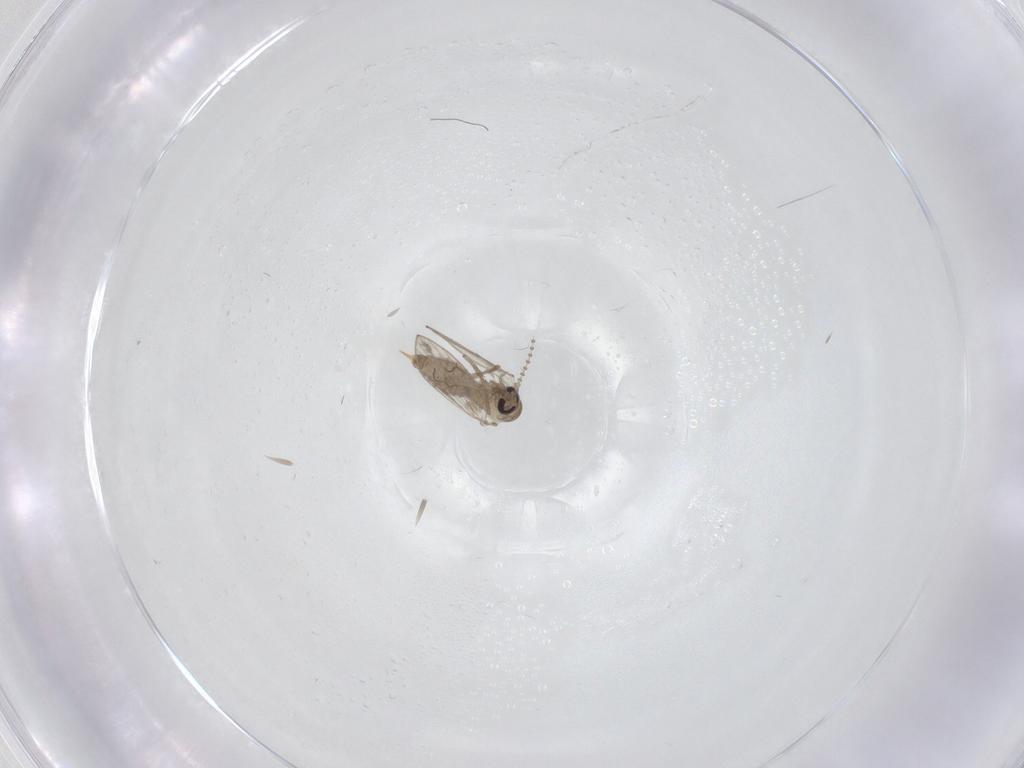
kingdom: Animalia
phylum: Arthropoda
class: Insecta
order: Diptera
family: Psychodidae
